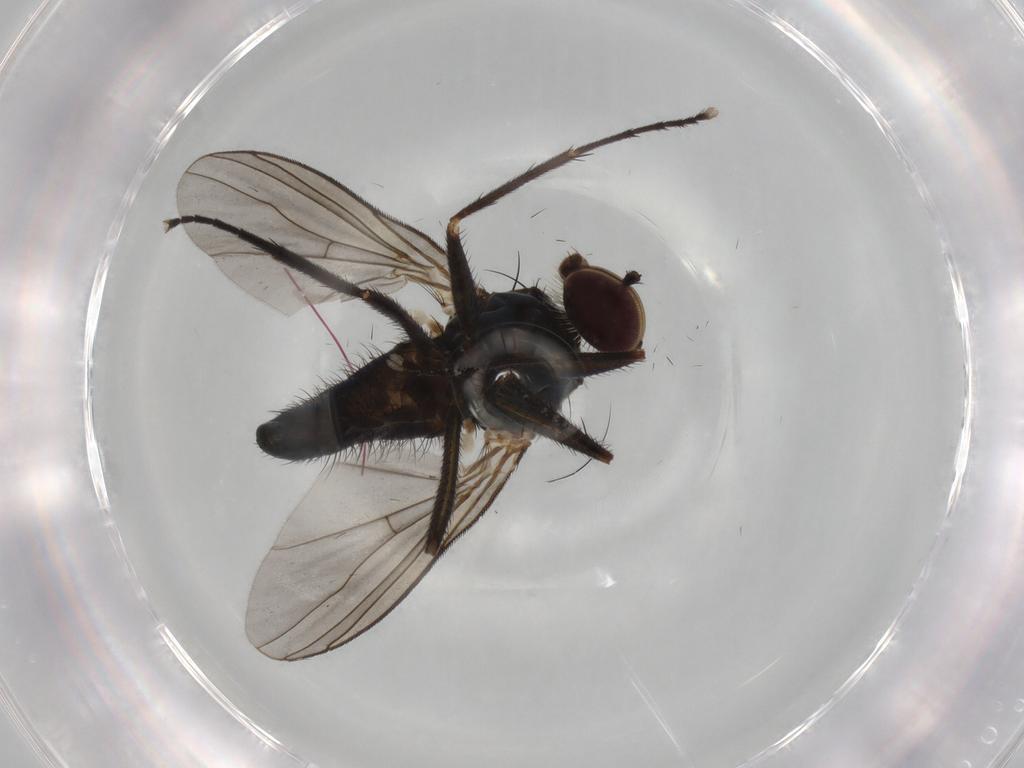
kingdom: Animalia
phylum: Arthropoda
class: Insecta
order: Diptera
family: Dolichopodidae
